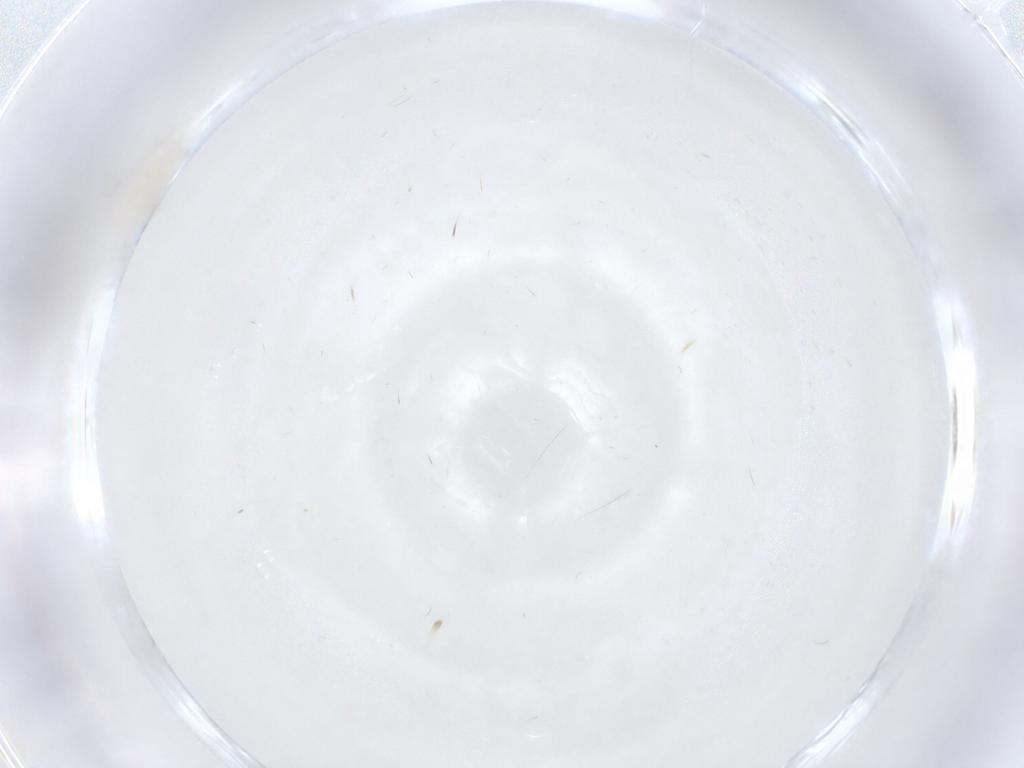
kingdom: Animalia
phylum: Arthropoda
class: Insecta
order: Diptera
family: Cecidomyiidae
